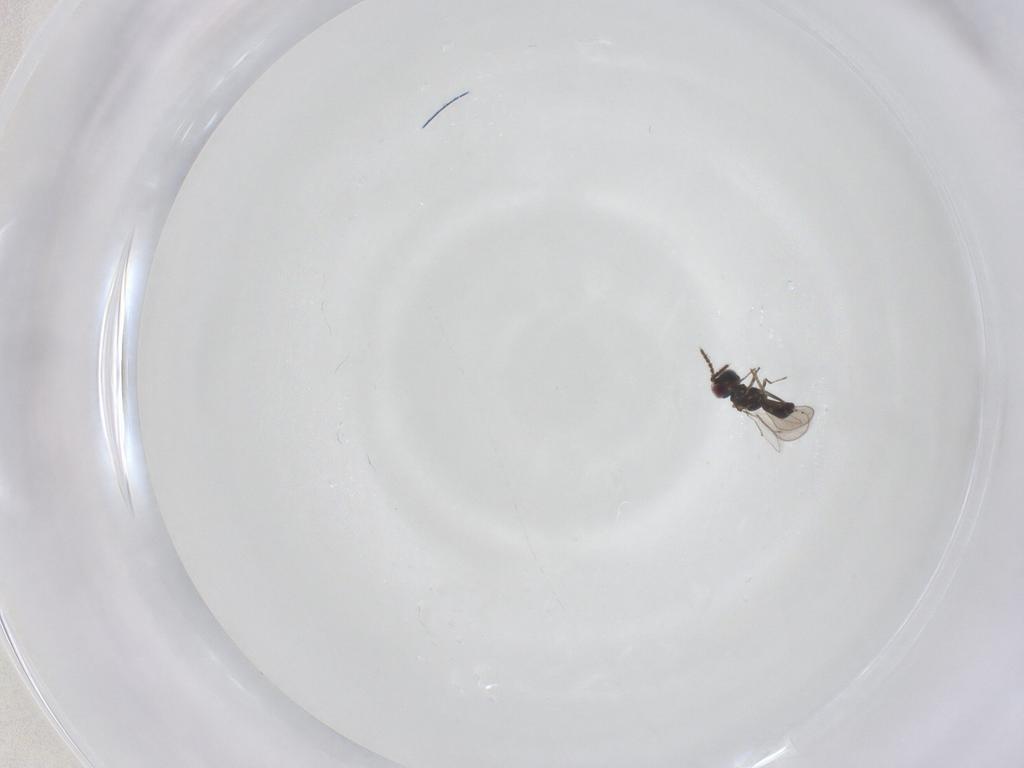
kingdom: Animalia
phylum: Arthropoda
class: Insecta
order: Hymenoptera
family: Eulophidae
